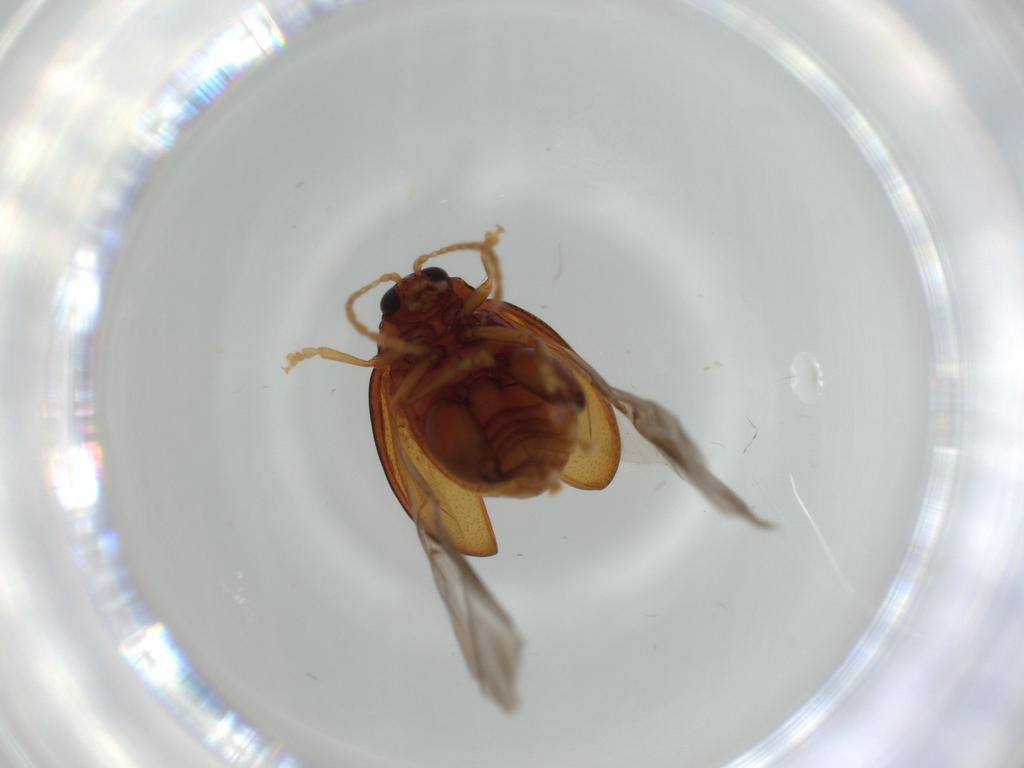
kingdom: Animalia
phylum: Arthropoda
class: Insecta
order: Coleoptera
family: Chrysomelidae
